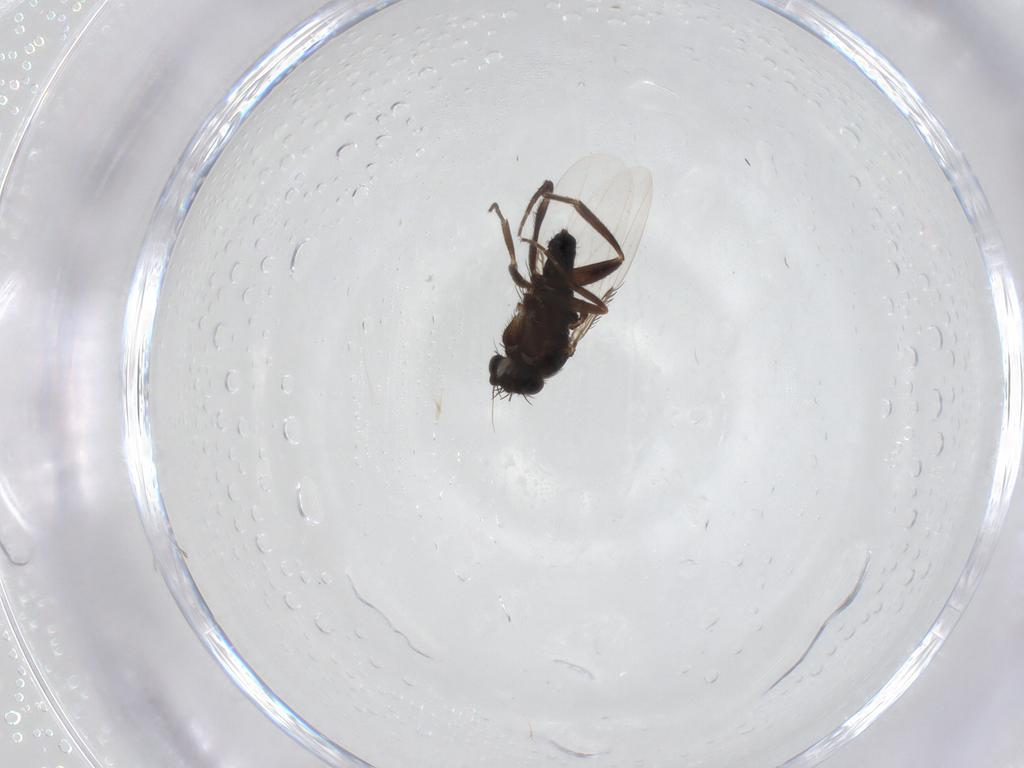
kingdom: Animalia
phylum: Arthropoda
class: Insecta
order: Diptera
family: Phoridae
